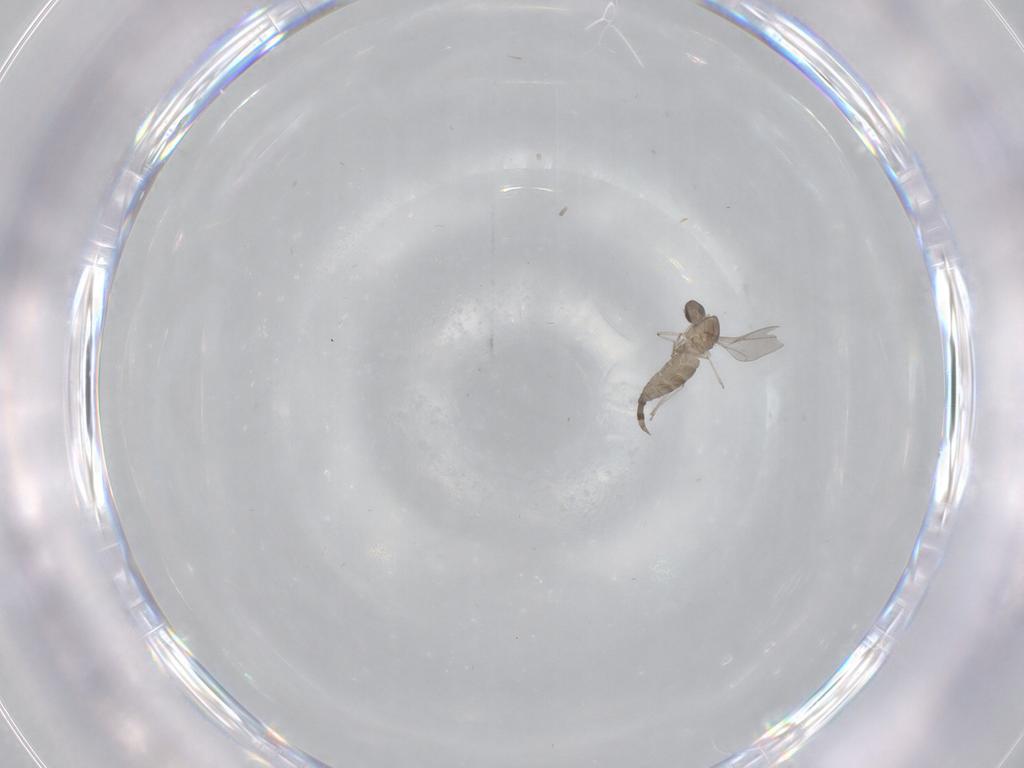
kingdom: Animalia
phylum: Arthropoda
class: Insecta
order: Diptera
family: Cecidomyiidae
